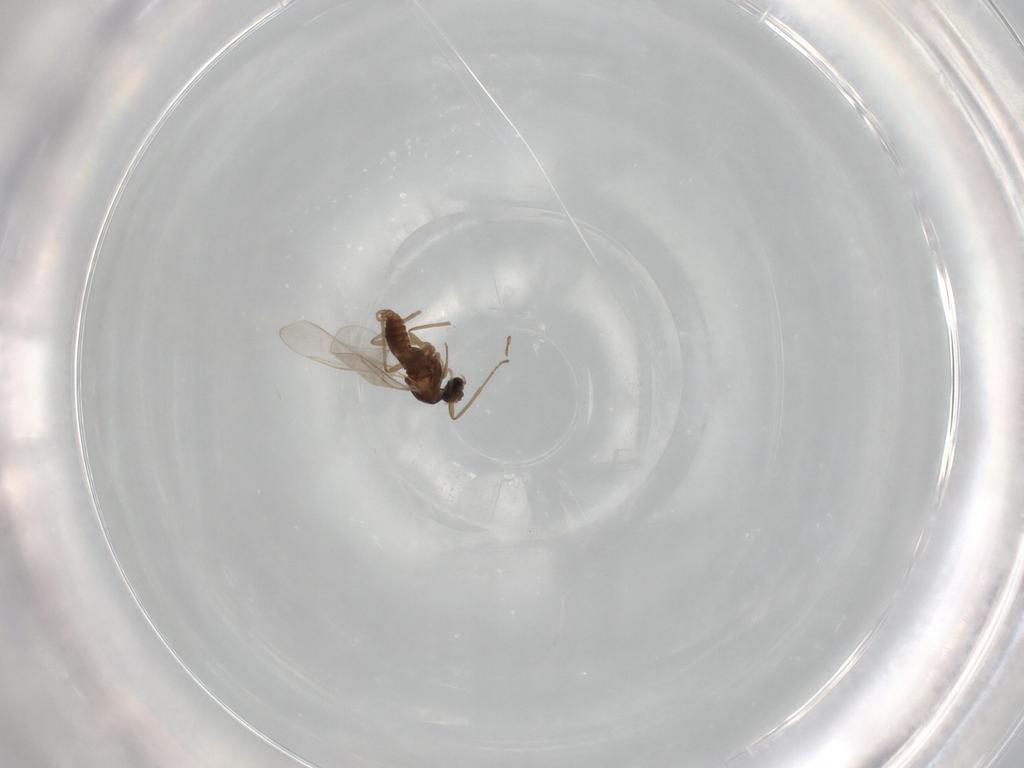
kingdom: Animalia
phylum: Arthropoda
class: Insecta
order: Diptera
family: Cecidomyiidae
